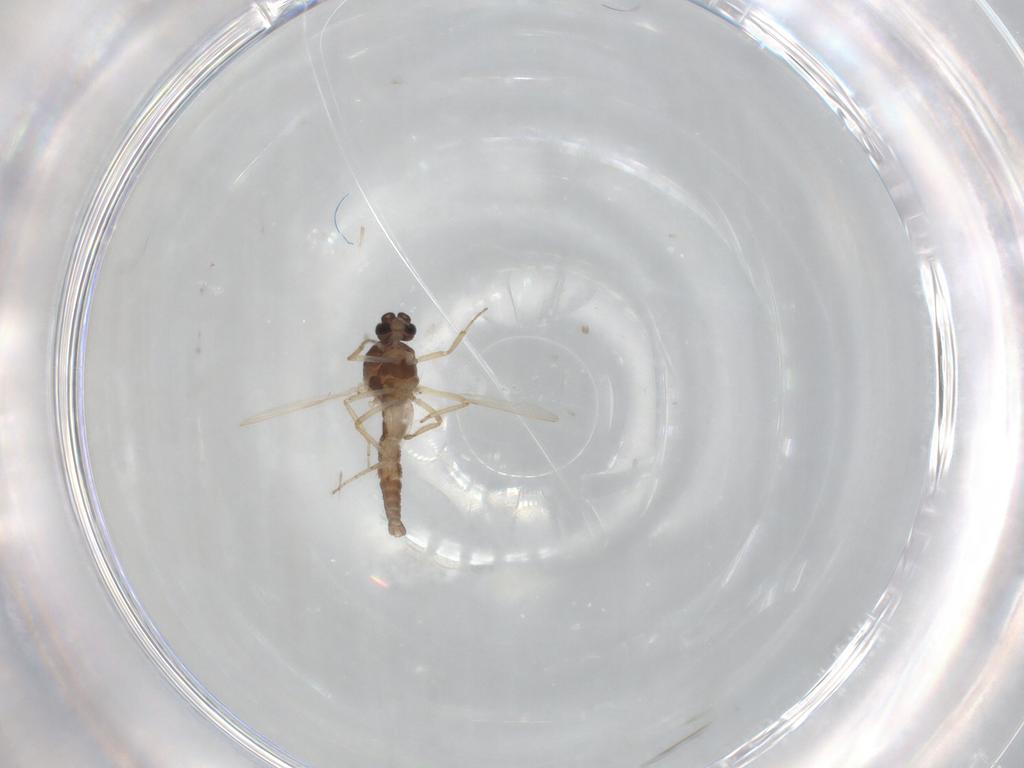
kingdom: Animalia
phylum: Arthropoda
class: Insecta
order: Diptera
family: Ceratopogonidae
